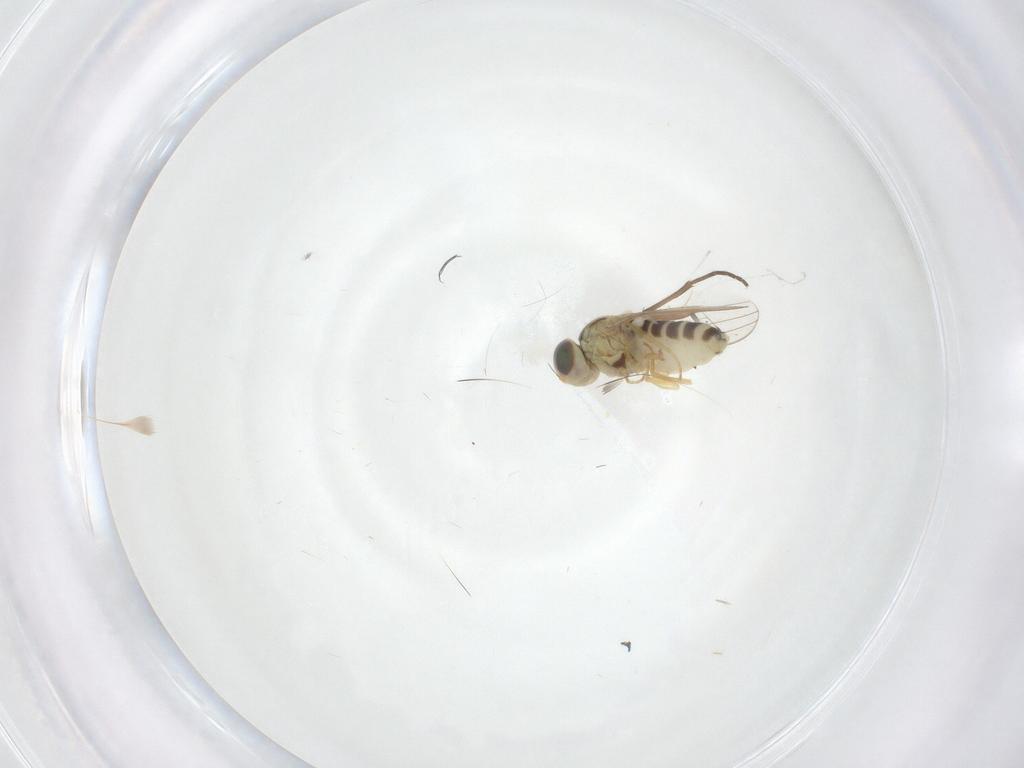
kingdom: Animalia
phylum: Arthropoda
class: Insecta
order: Diptera
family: Chyromyidae
